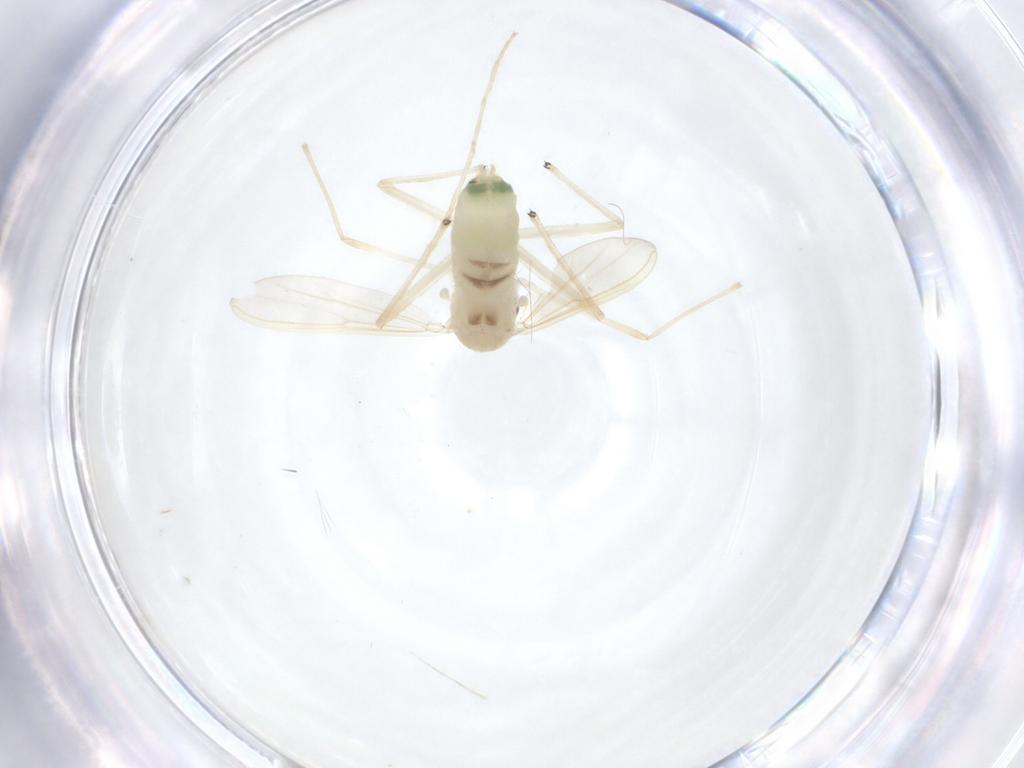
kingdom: Animalia
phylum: Arthropoda
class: Insecta
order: Diptera
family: Chironomidae
